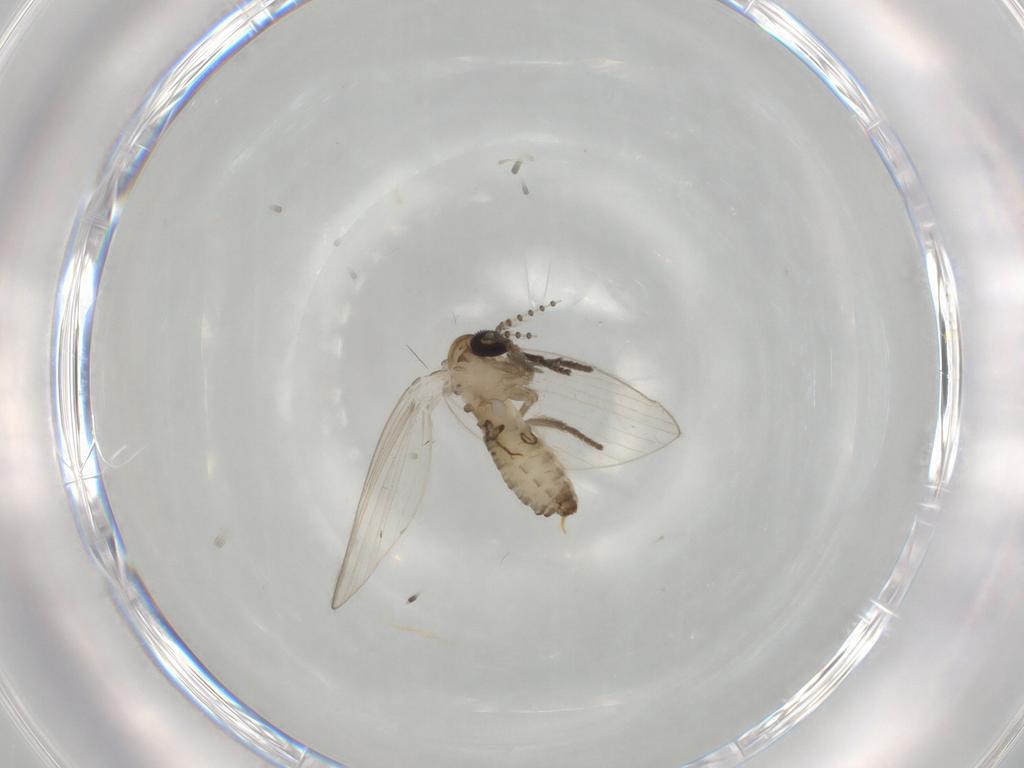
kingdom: Animalia
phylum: Arthropoda
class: Insecta
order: Diptera
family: Psychodidae
